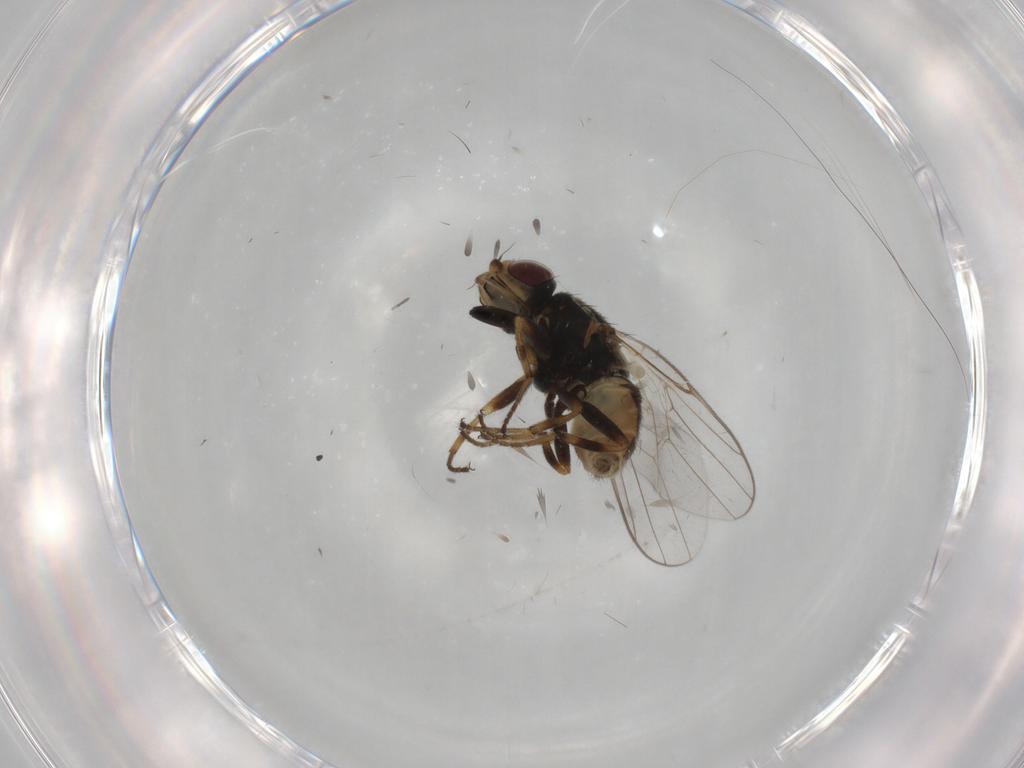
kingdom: Animalia
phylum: Arthropoda
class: Insecta
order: Diptera
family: Chloropidae
